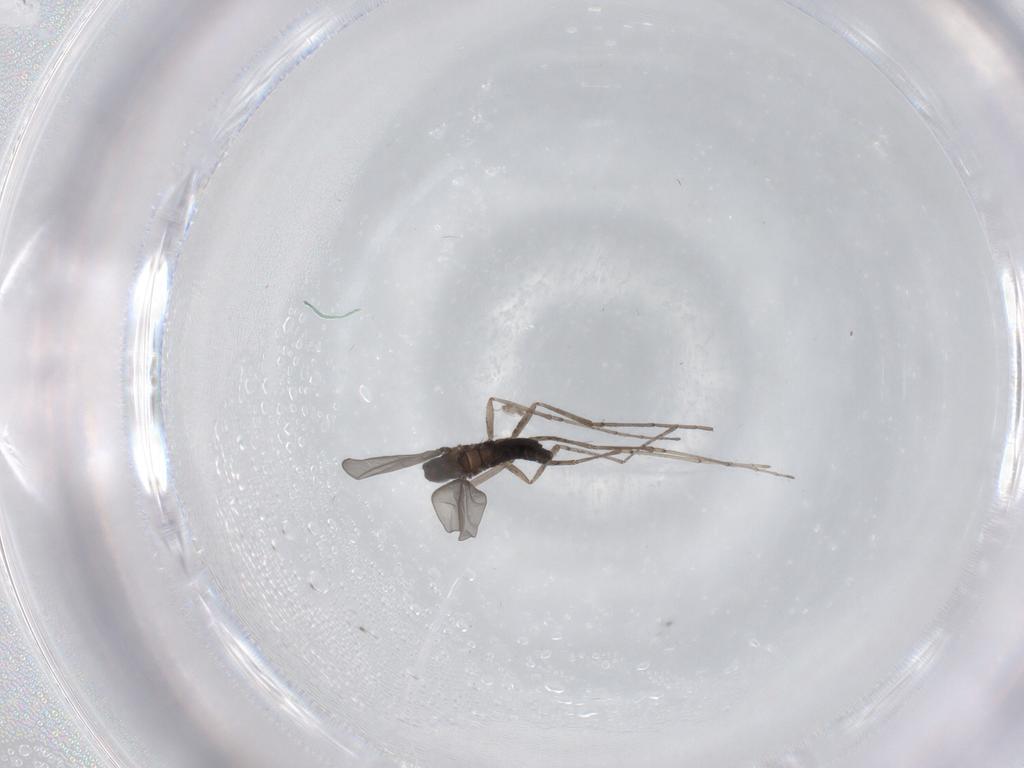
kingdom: Animalia
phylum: Arthropoda
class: Insecta
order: Diptera
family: Cecidomyiidae
